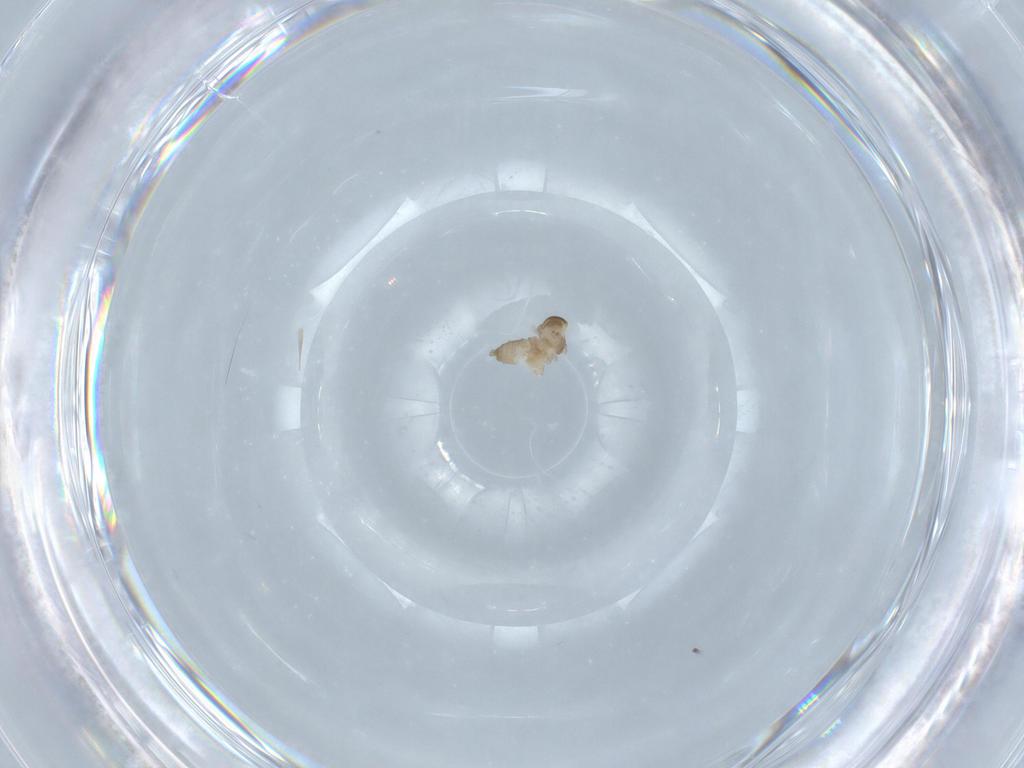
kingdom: Animalia
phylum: Arthropoda
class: Insecta
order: Diptera
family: Cecidomyiidae
